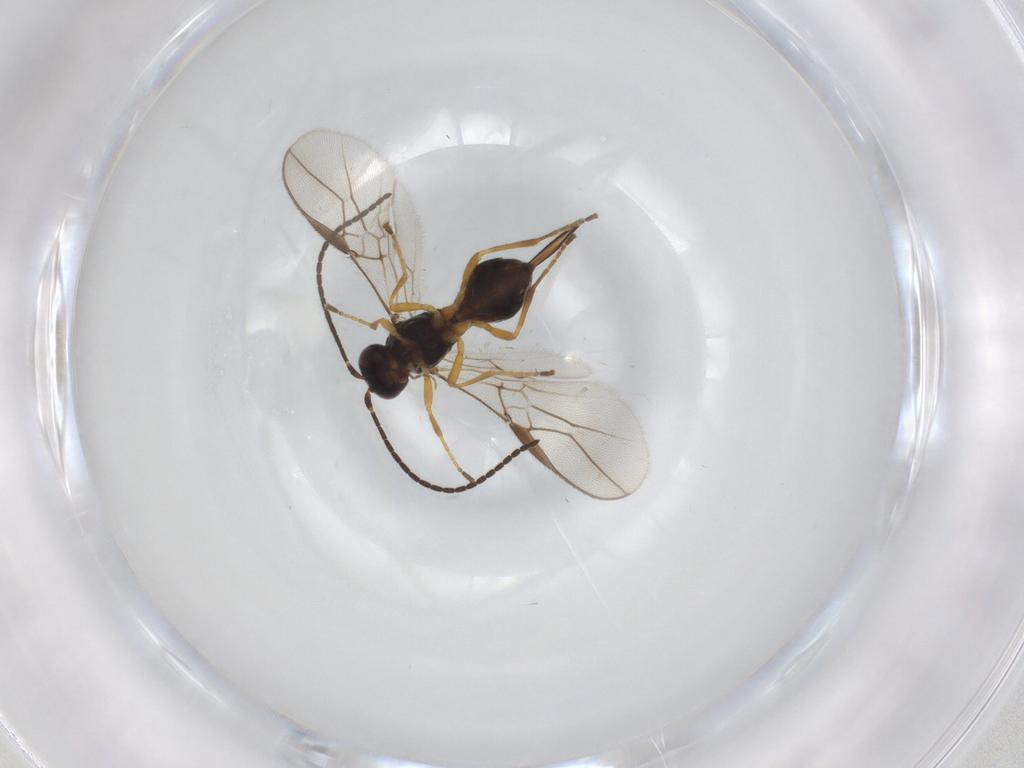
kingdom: Animalia
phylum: Arthropoda
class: Insecta
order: Hymenoptera
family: Braconidae
